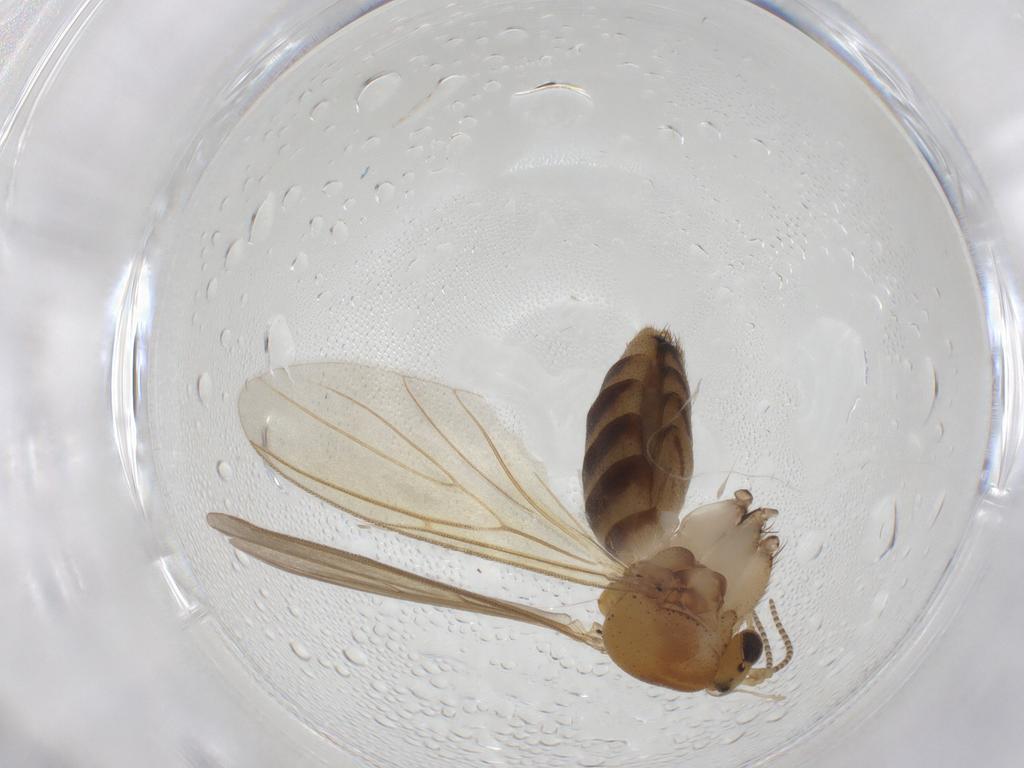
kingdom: Animalia
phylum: Arthropoda
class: Insecta
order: Diptera
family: Mycetophilidae
